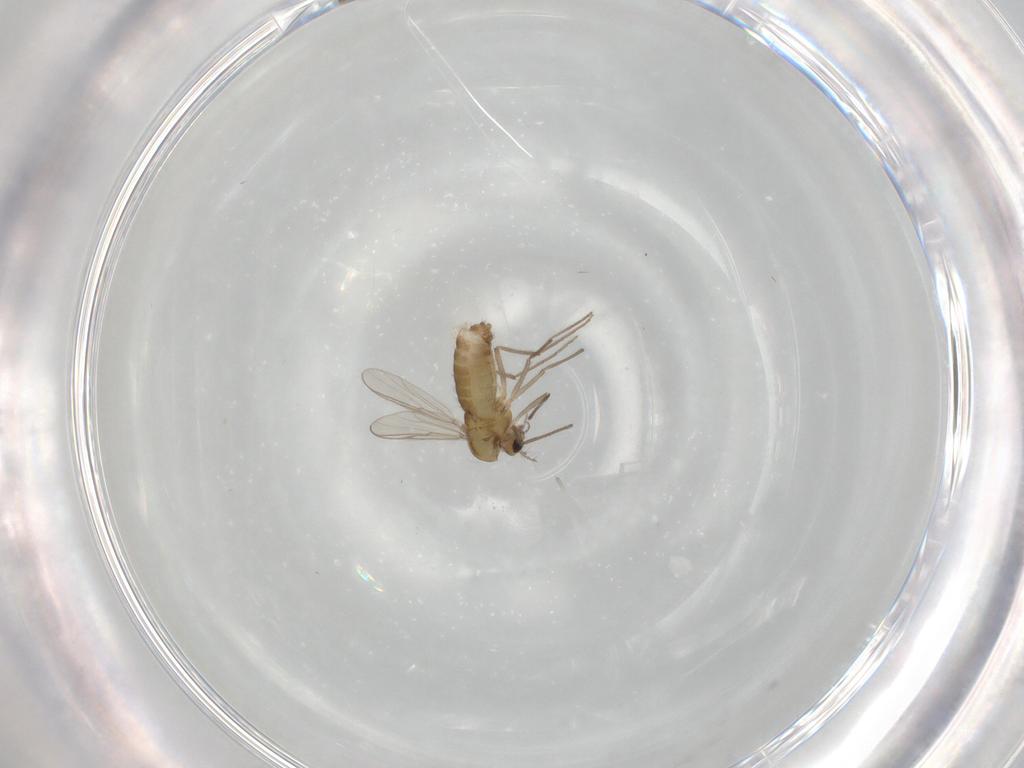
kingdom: Animalia
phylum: Arthropoda
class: Insecta
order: Diptera
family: Chironomidae
